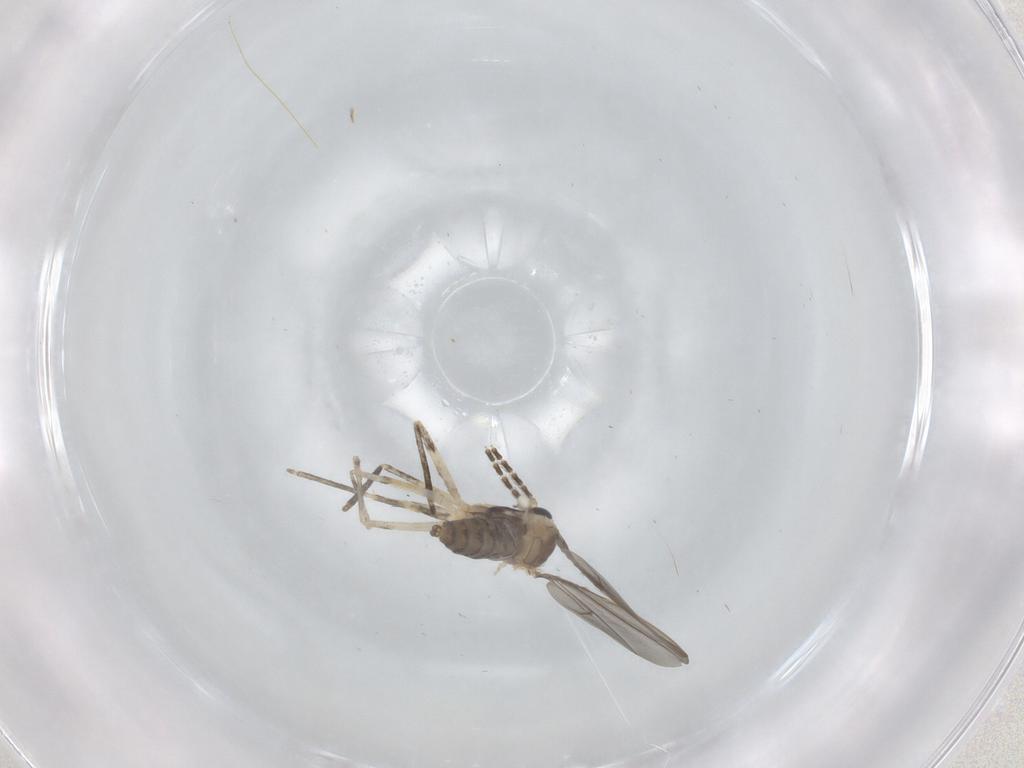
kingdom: Animalia
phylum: Arthropoda
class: Insecta
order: Diptera
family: Cecidomyiidae
